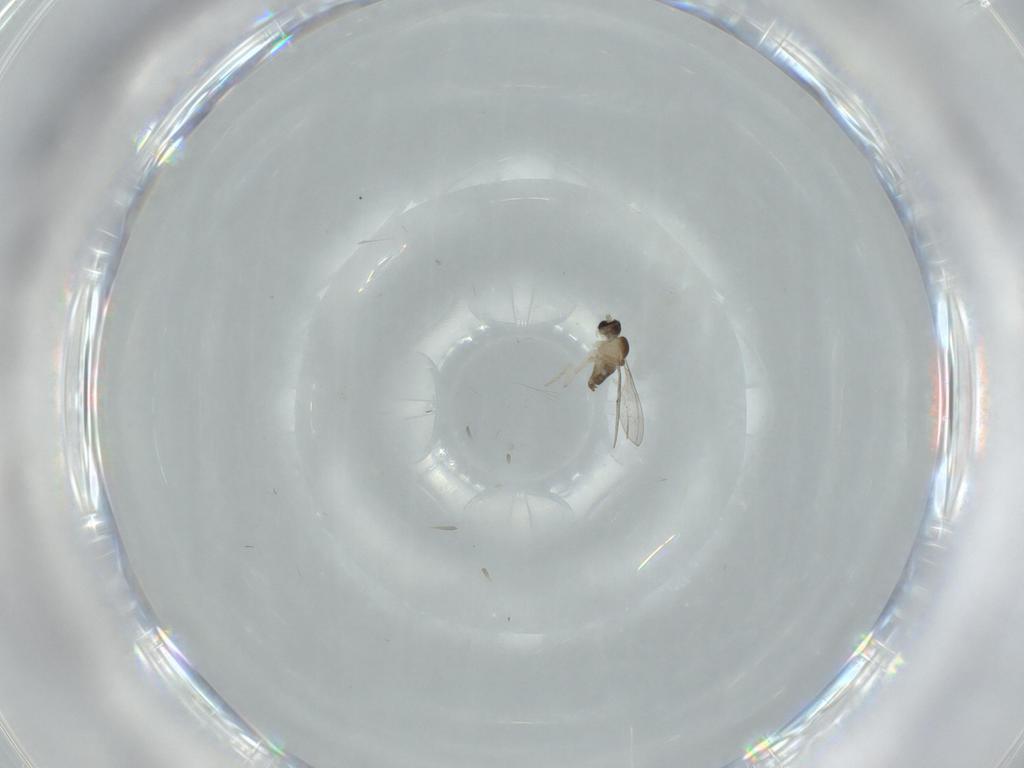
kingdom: Animalia
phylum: Arthropoda
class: Insecta
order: Diptera
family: Cecidomyiidae
